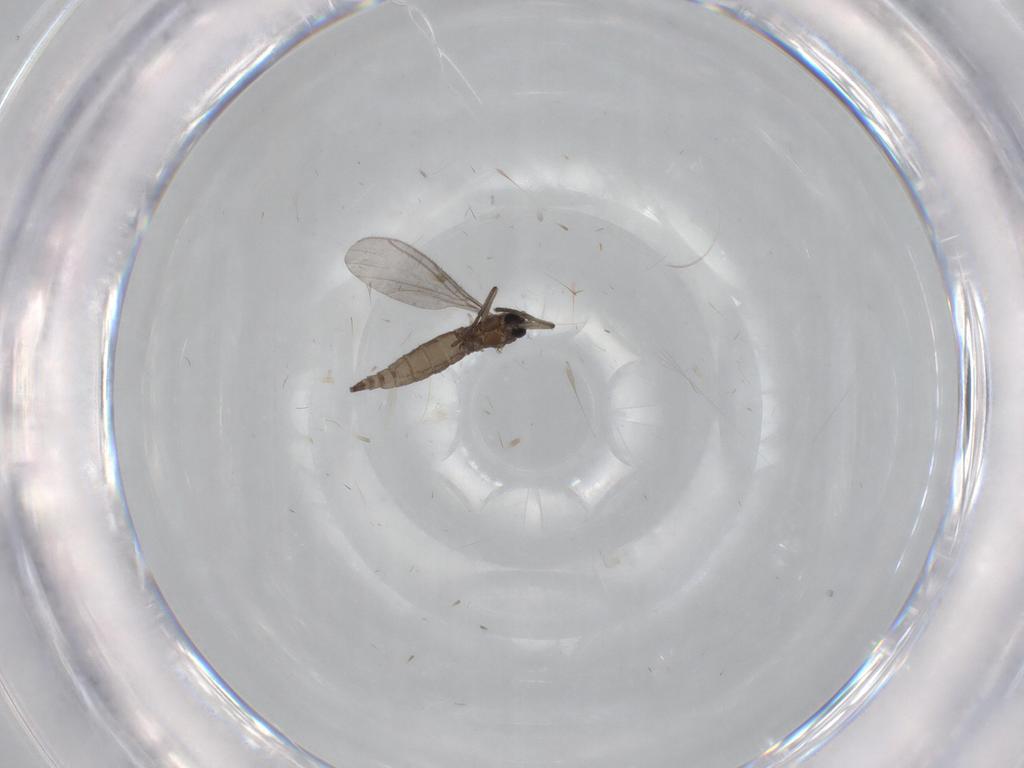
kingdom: Animalia
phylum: Arthropoda
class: Insecta
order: Diptera
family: Sciaridae
